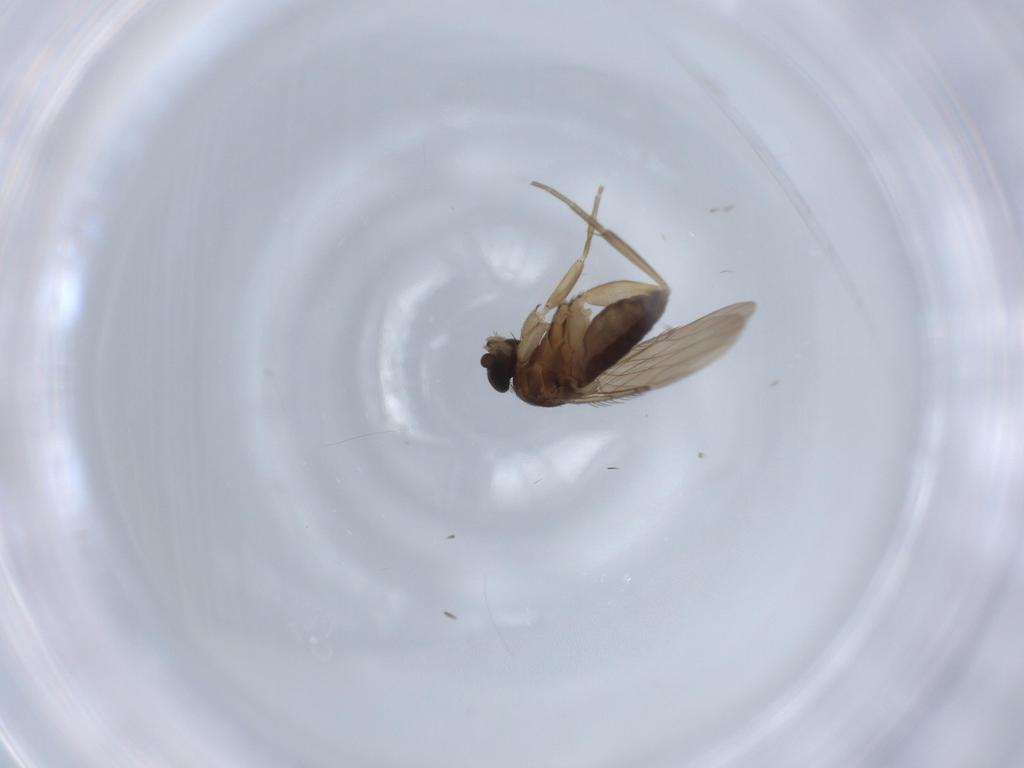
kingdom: Animalia
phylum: Arthropoda
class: Insecta
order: Diptera
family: Phoridae
